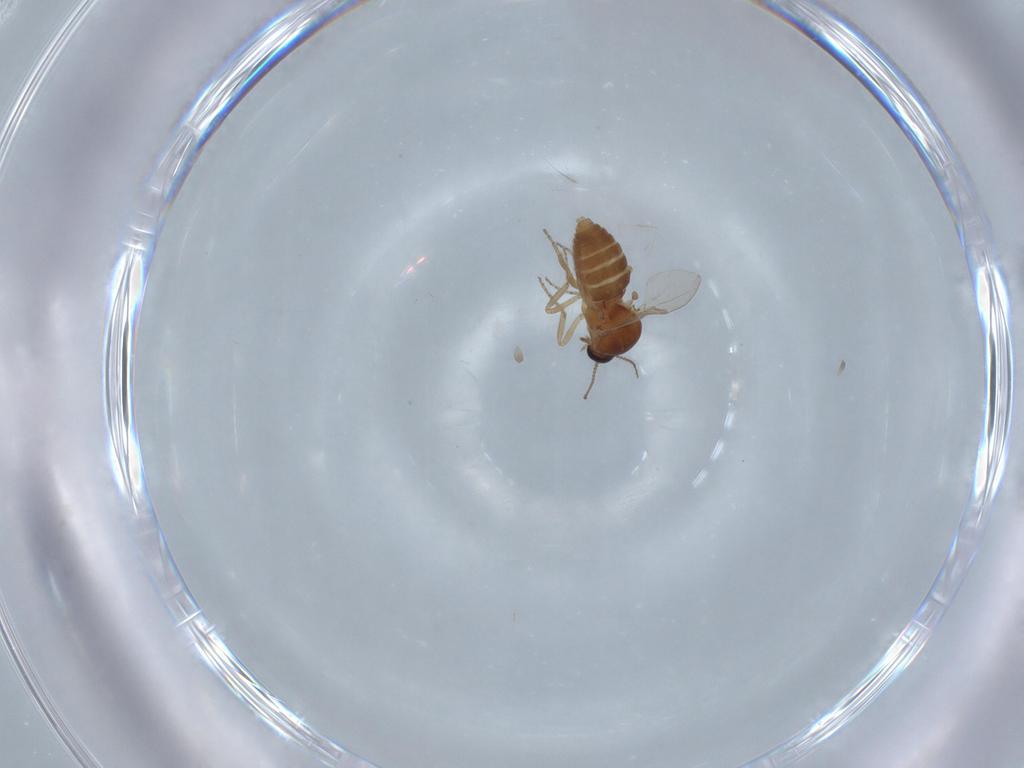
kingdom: Animalia
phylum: Arthropoda
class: Insecta
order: Diptera
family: Ceratopogonidae
